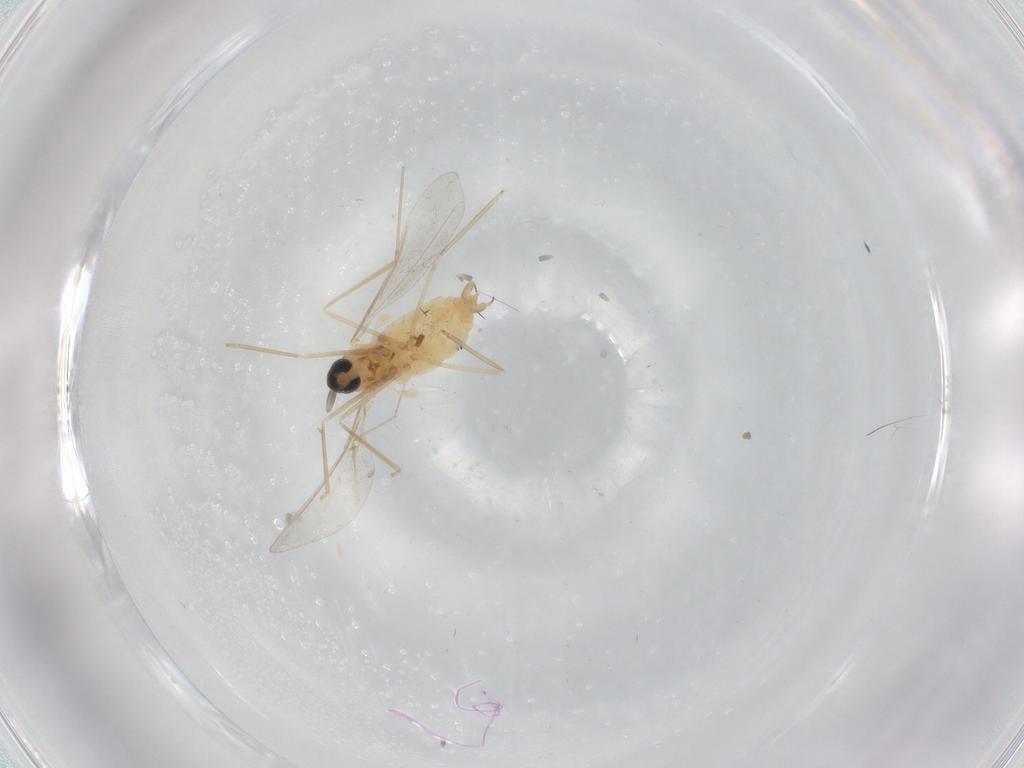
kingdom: Animalia
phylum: Arthropoda
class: Insecta
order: Diptera
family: Cecidomyiidae
